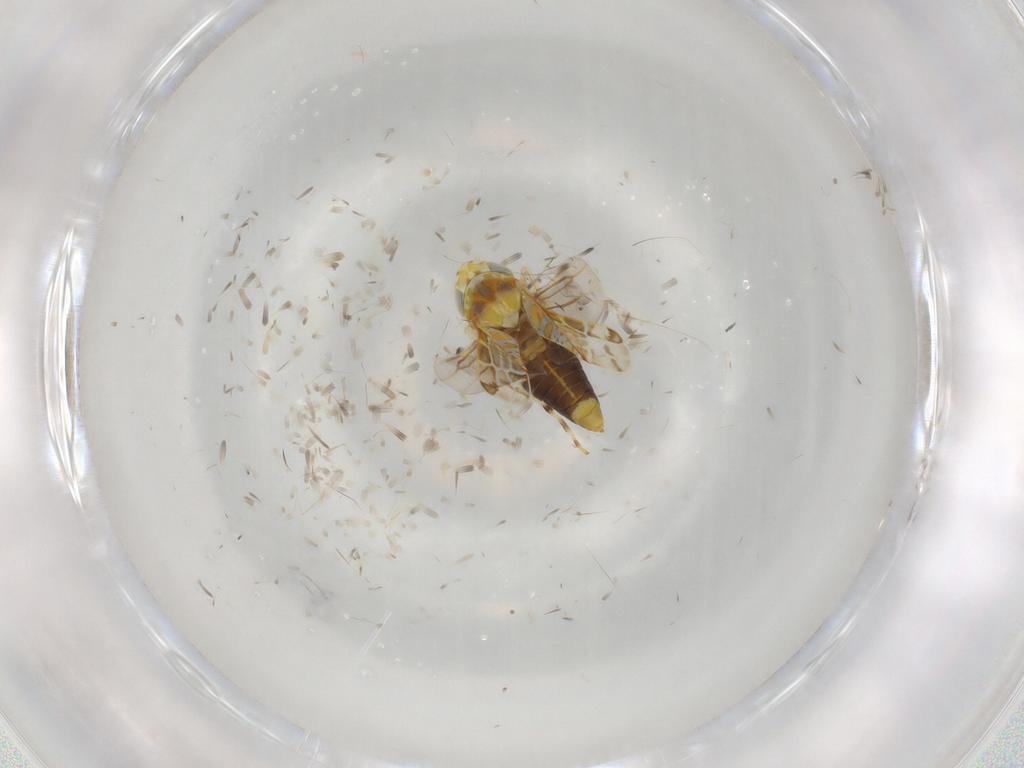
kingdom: Animalia
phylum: Arthropoda
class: Insecta
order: Hemiptera
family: Cicadellidae
